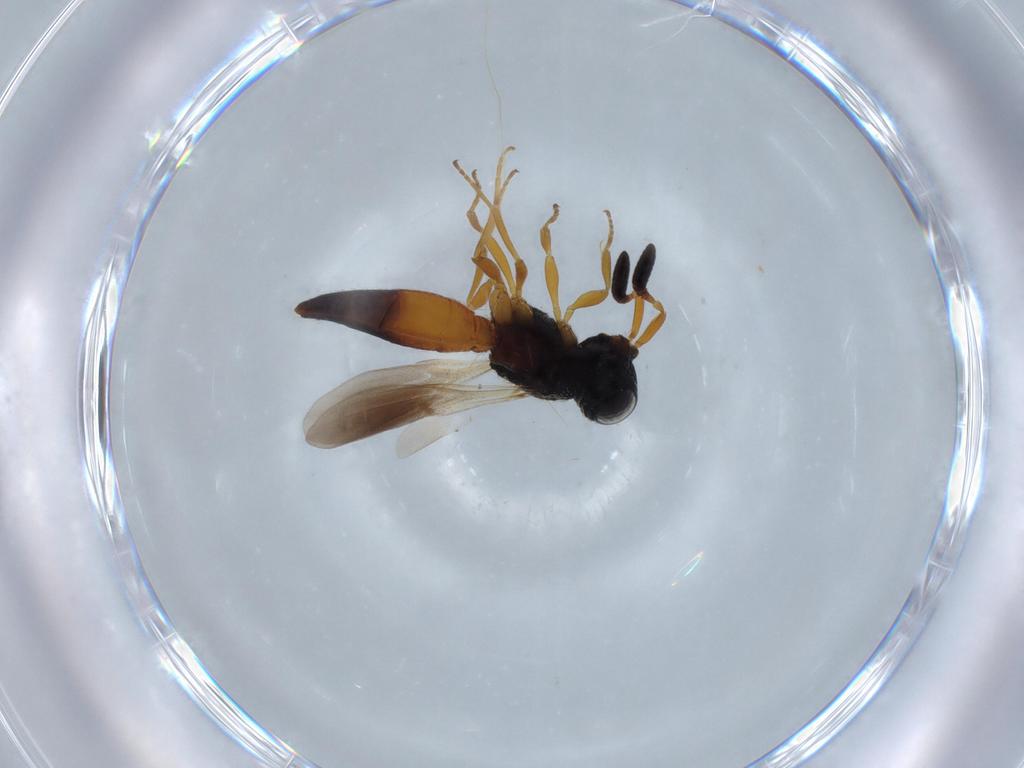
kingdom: Animalia
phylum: Arthropoda
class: Insecta
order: Hymenoptera
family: Scelionidae
